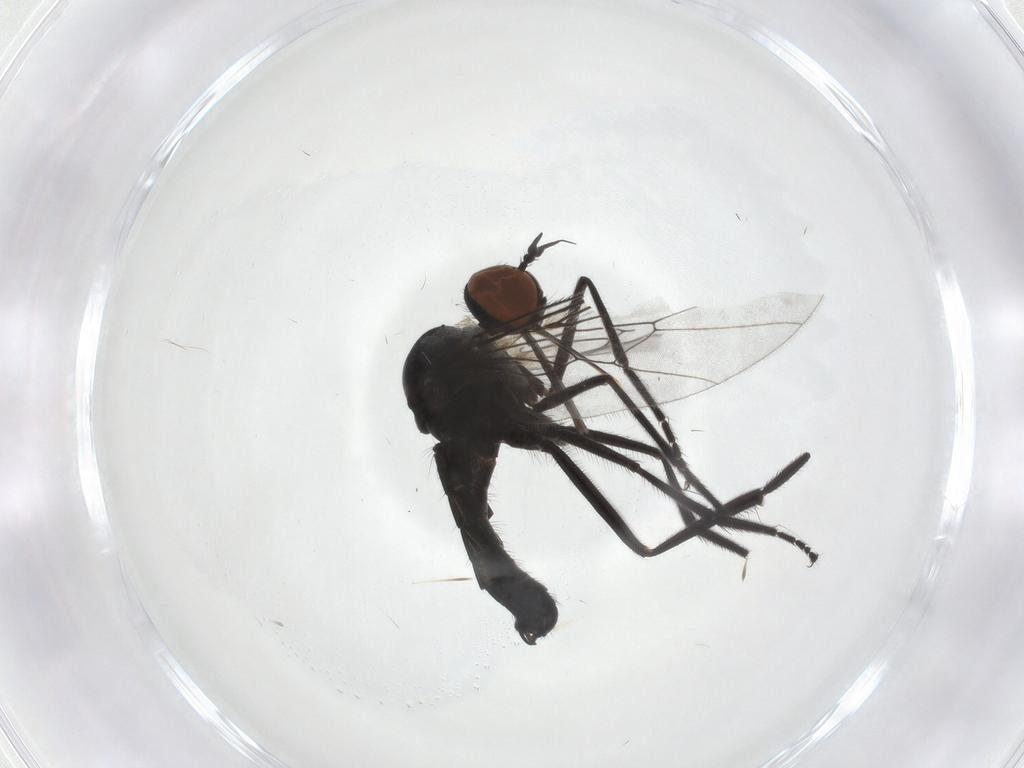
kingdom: Animalia
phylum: Arthropoda
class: Insecta
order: Diptera
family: Empididae
